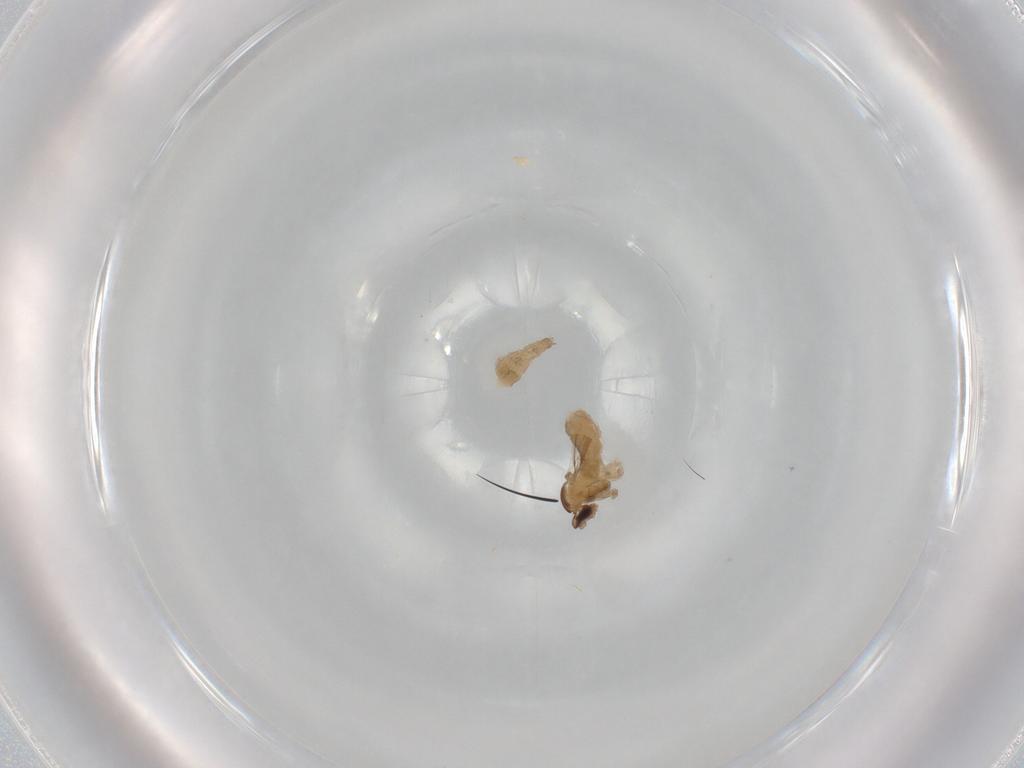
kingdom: Animalia
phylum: Arthropoda
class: Insecta
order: Diptera
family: Cecidomyiidae
